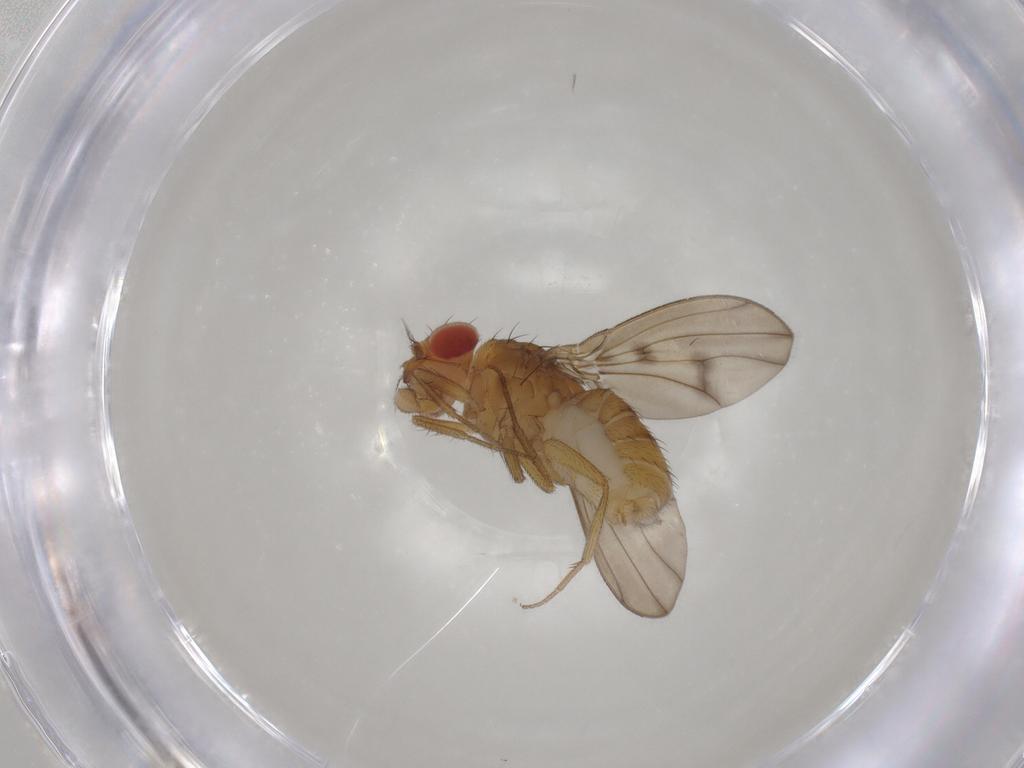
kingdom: Animalia
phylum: Arthropoda
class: Insecta
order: Diptera
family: Drosophilidae
